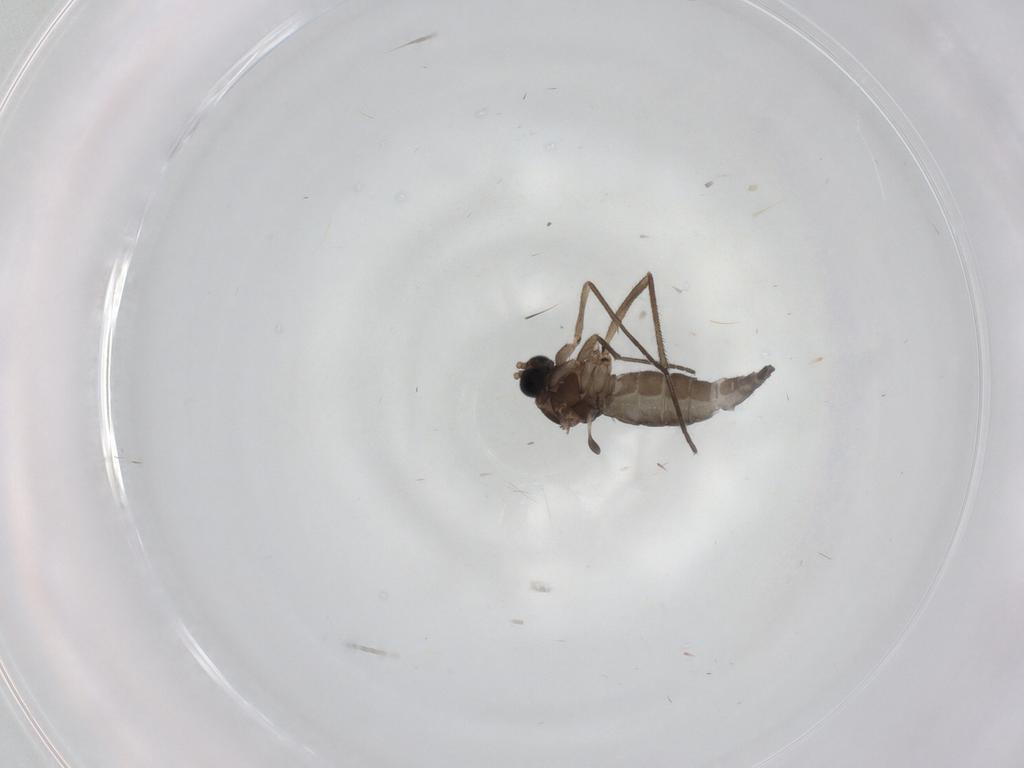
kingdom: Animalia
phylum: Arthropoda
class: Insecta
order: Diptera
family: Sciaridae
